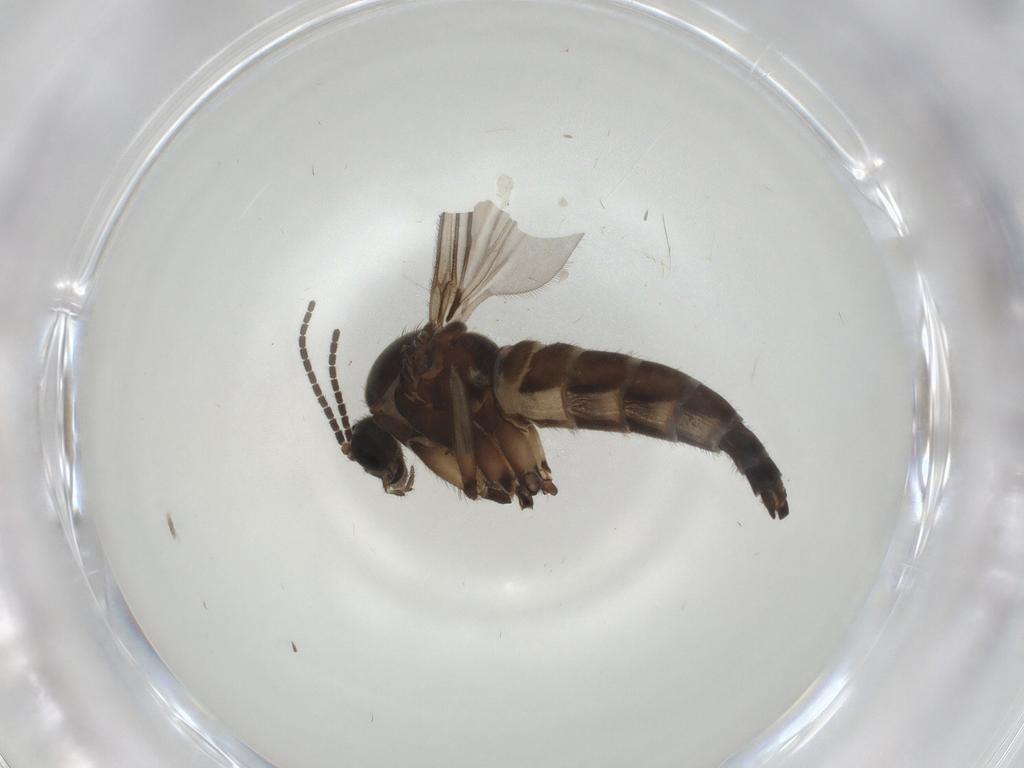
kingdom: Animalia
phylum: Arthropoda
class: Insecta
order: Diptera
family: Sciaridae
